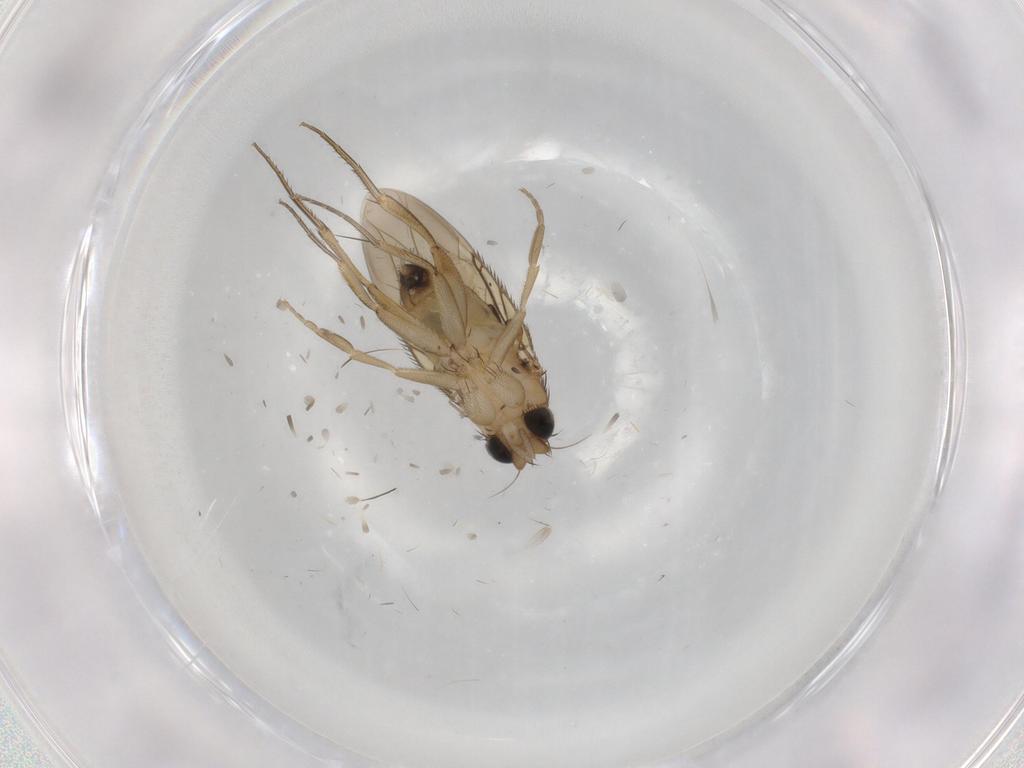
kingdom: Animalia
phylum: Arthropoda
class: Insecta
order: Diptera
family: Phoridae
